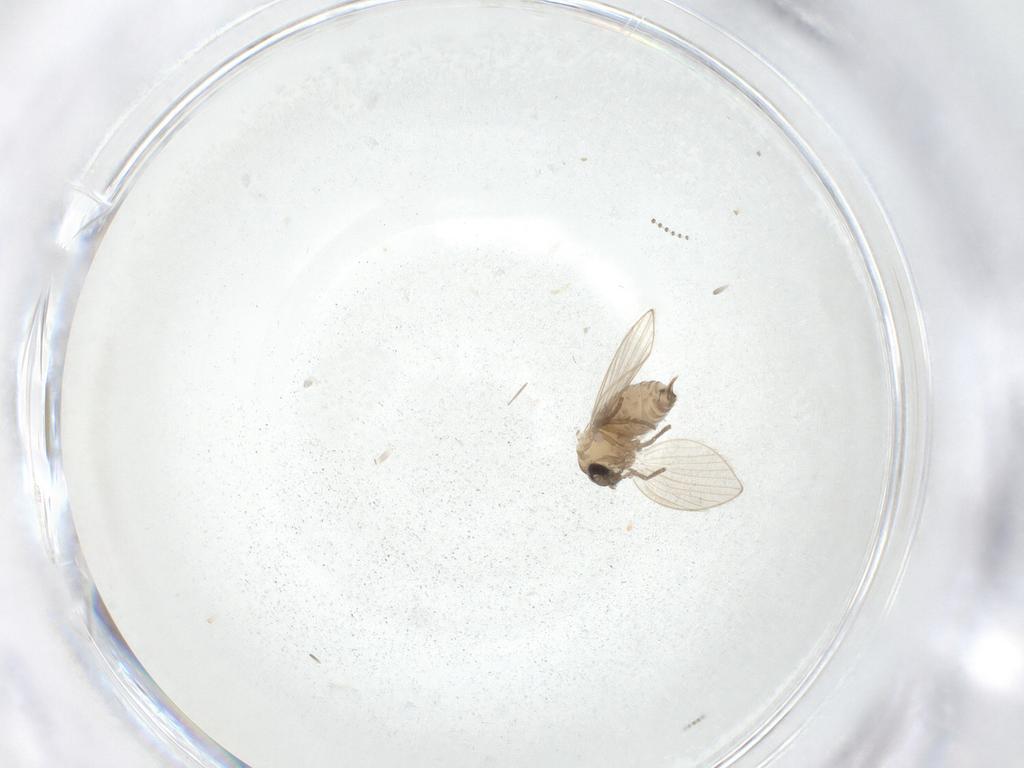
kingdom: Animalia
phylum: Arthropoda
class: Insecta
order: Diptera
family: Psychodidae
